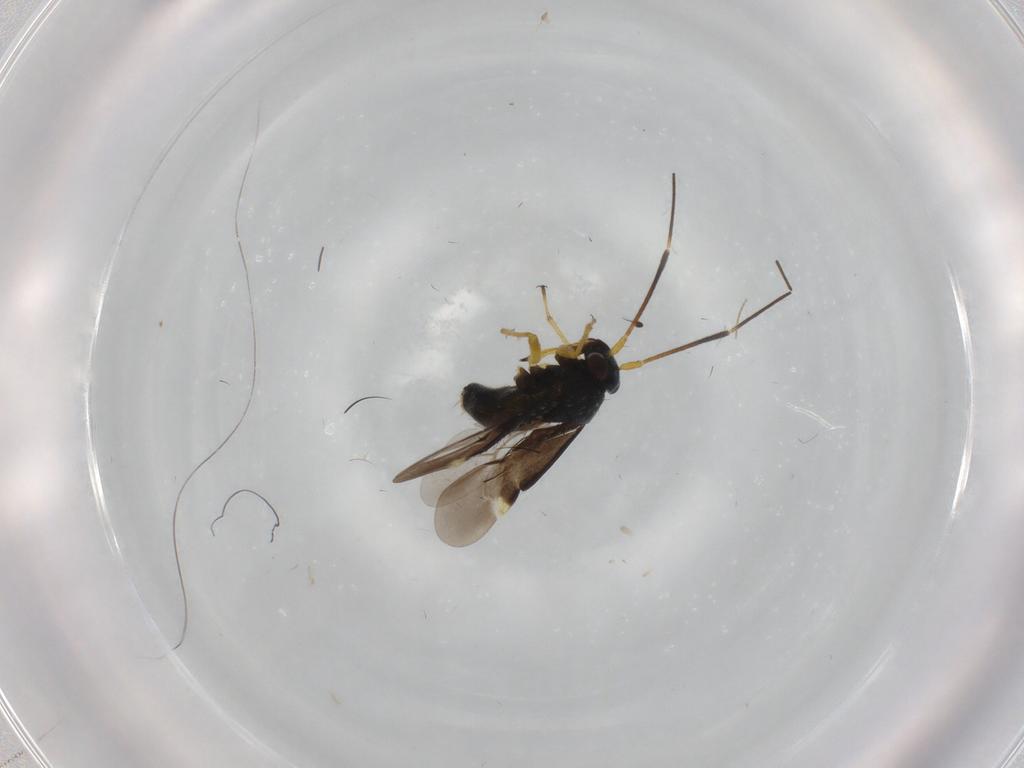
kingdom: Animalia
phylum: Arthropoda
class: Insecta
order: Hemiptera
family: Miridae
